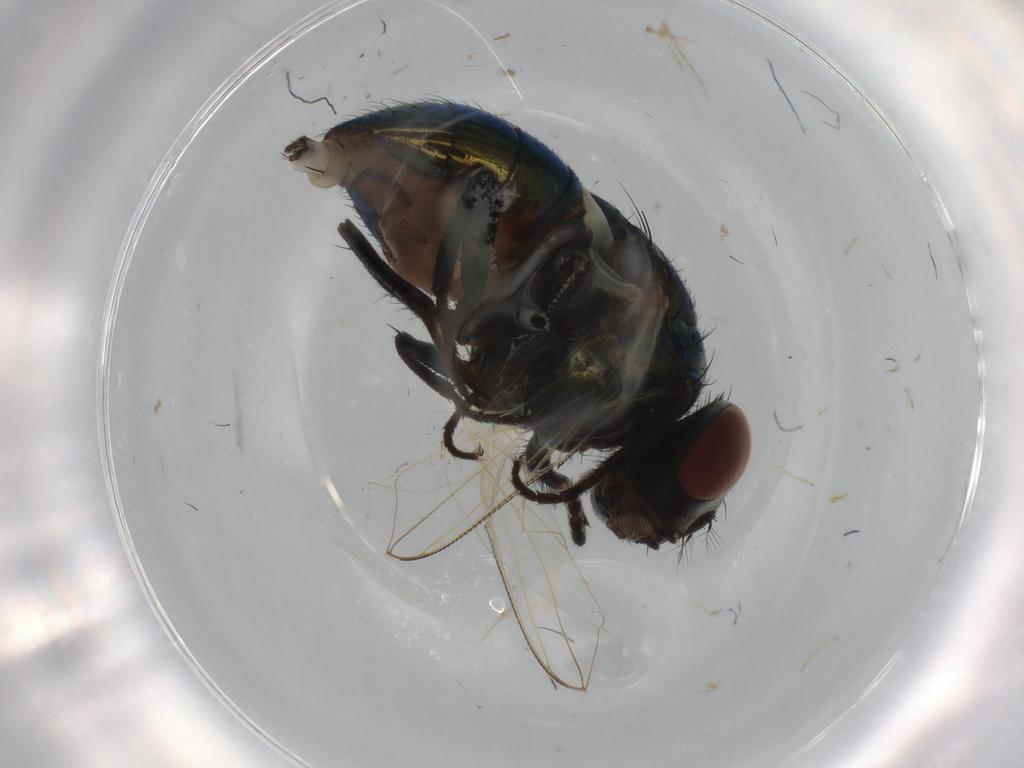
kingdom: Animalia
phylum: Arthropoda
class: Insecta
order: Diptera
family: Muscidae
